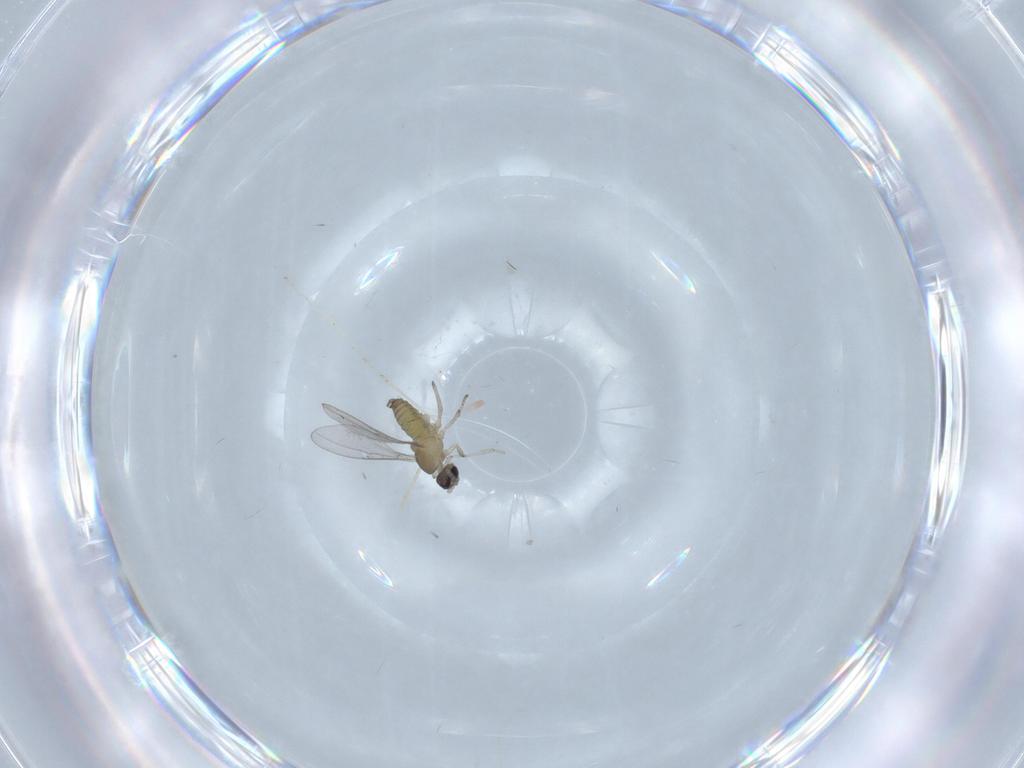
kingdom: Animalia
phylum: Arthropoda
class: Insecta
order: Diptera
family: Cecidomyiidae
